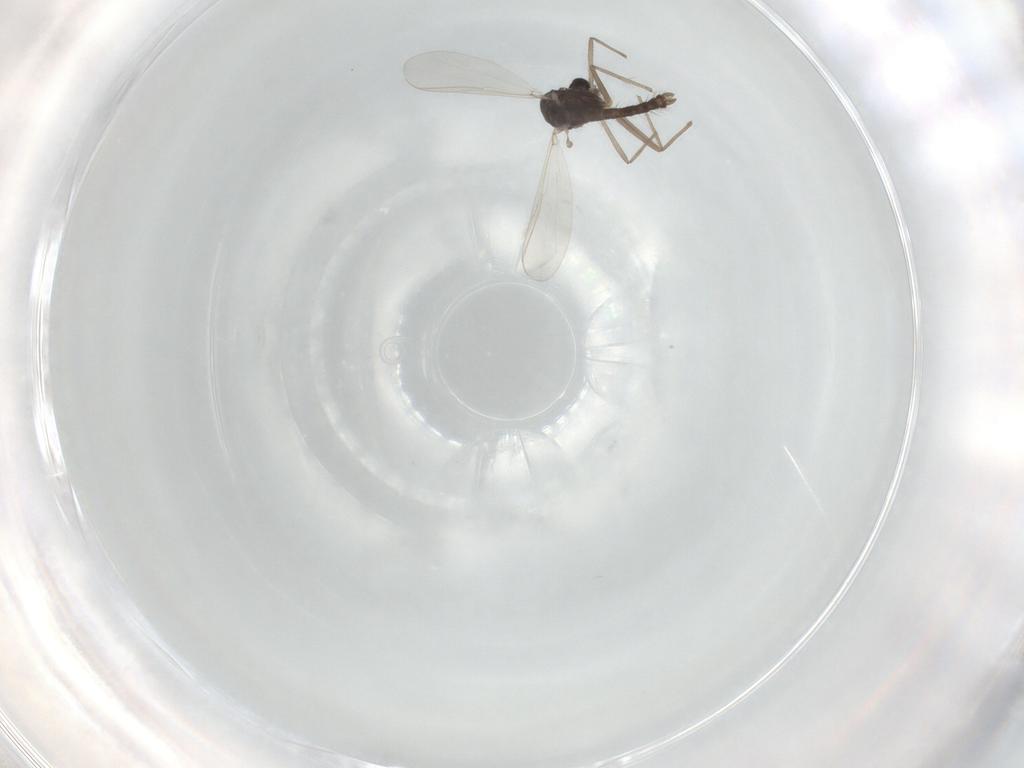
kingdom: Animalia
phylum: Arthropoda
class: Insecta
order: Diptera
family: Chironomidae
